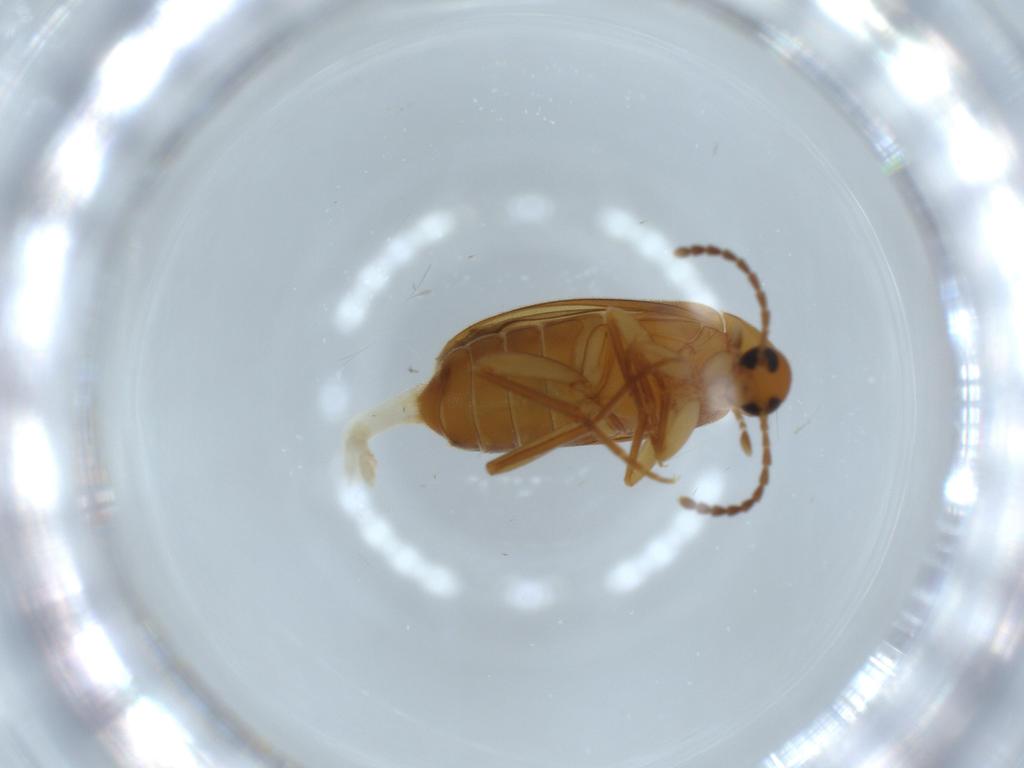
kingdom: Animalia
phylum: Arthropoda
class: Insecta
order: Coleoptera
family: Scraptiidae
